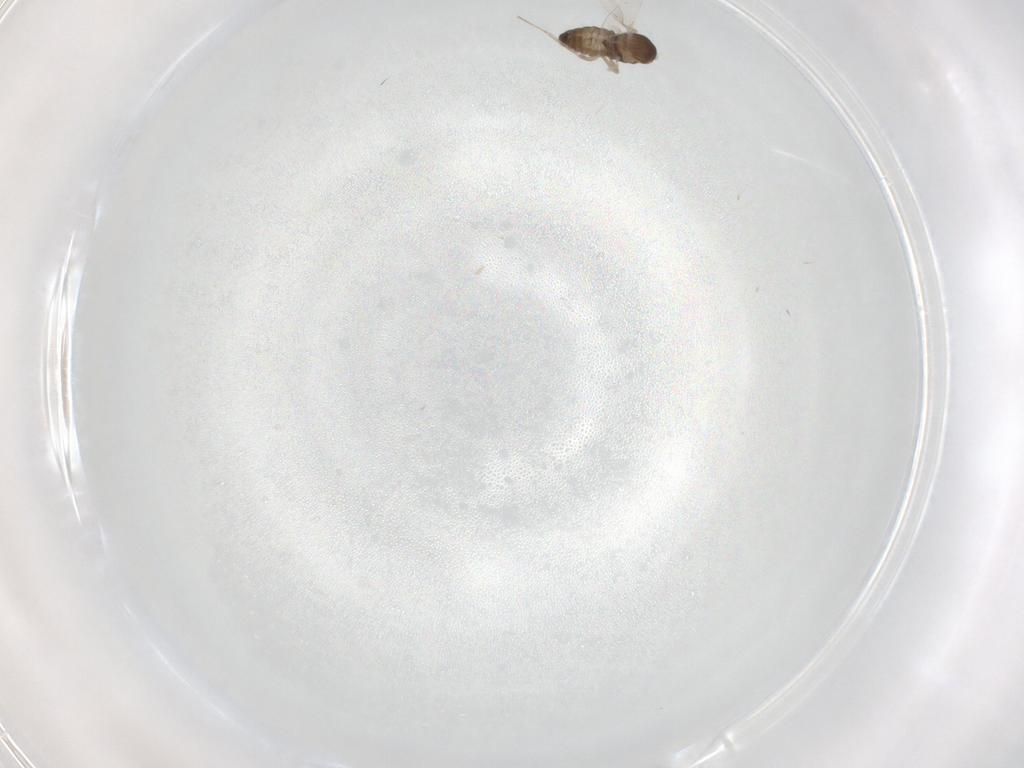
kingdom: Animalia
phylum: Arthropoda
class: Insecta
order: Diptera
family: Cecidomyiidae
